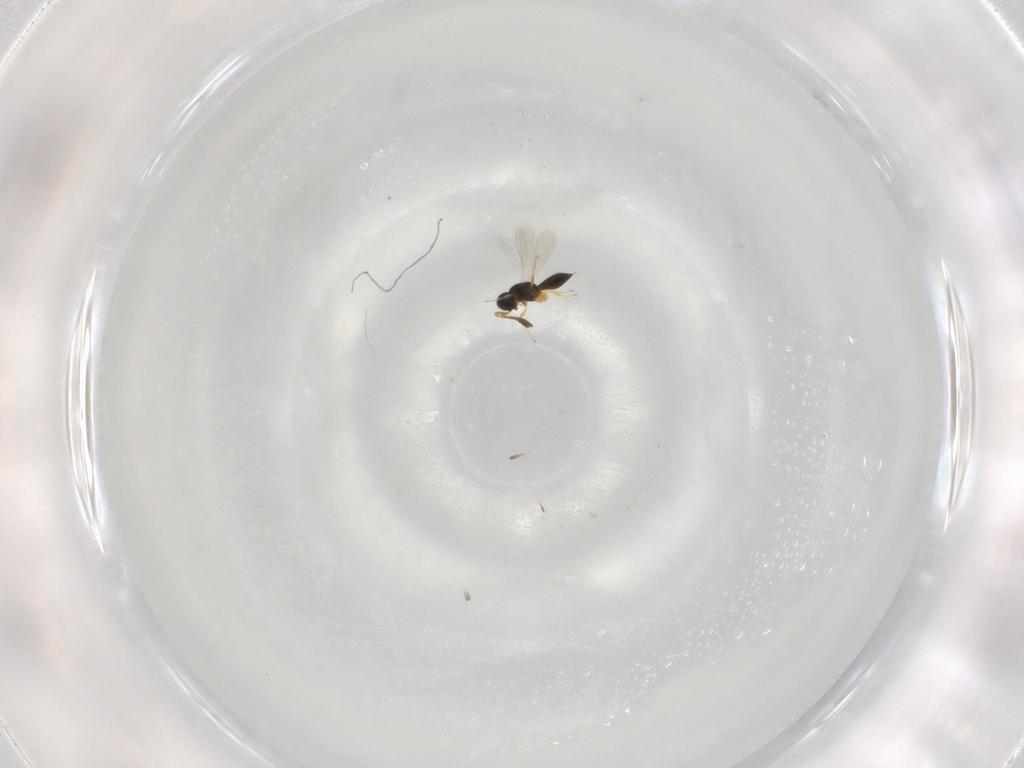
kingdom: Animalia
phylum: Arthropoda
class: Insecta
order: Hymenoptera
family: Scelionidae
